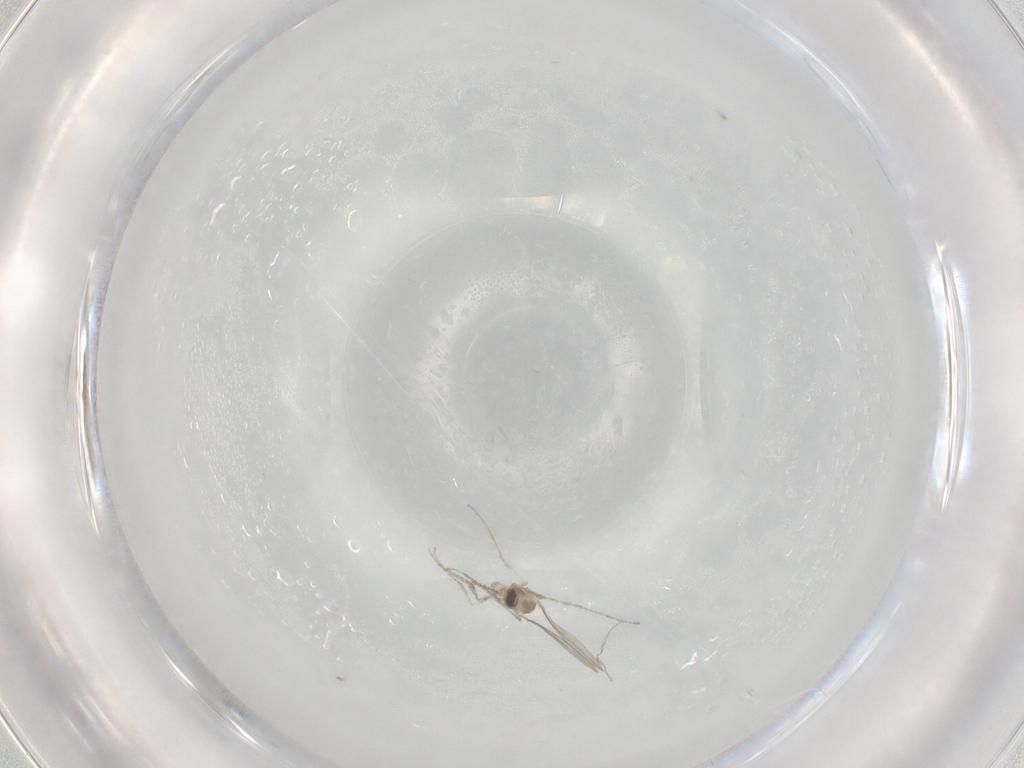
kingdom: Animalia
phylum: Arthropoda
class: Insecta
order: Diptera
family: Cecidomyiidae
